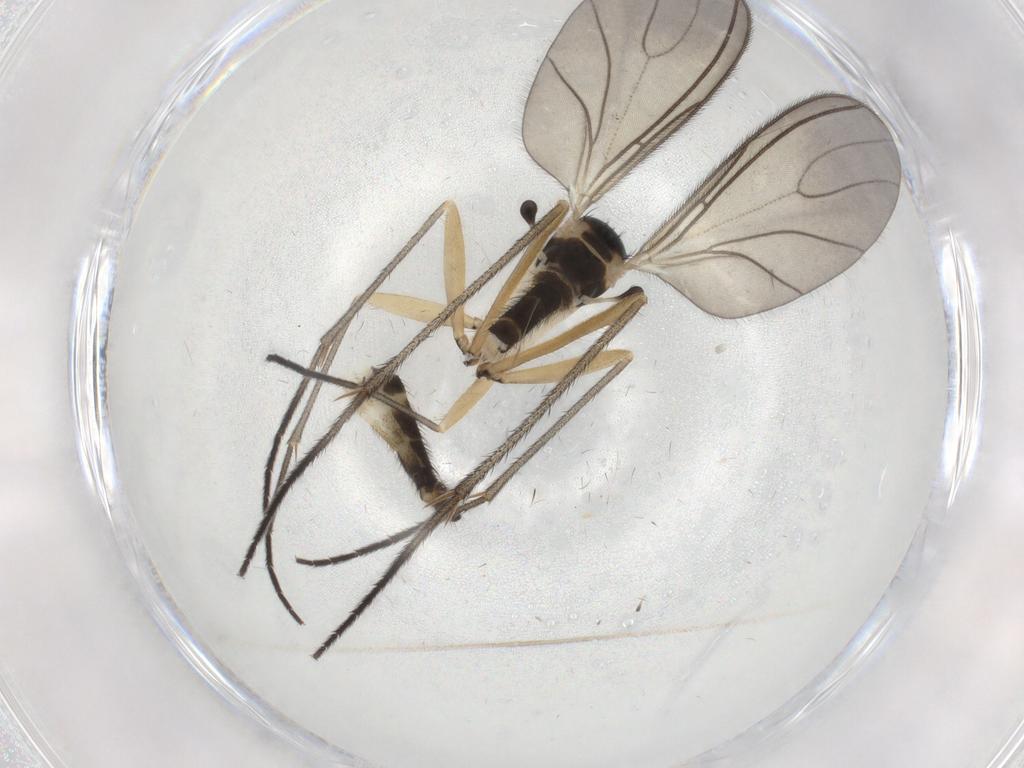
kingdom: Animalia
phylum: Arthropoda
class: Insecta
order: Diptera
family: Sciaridae
